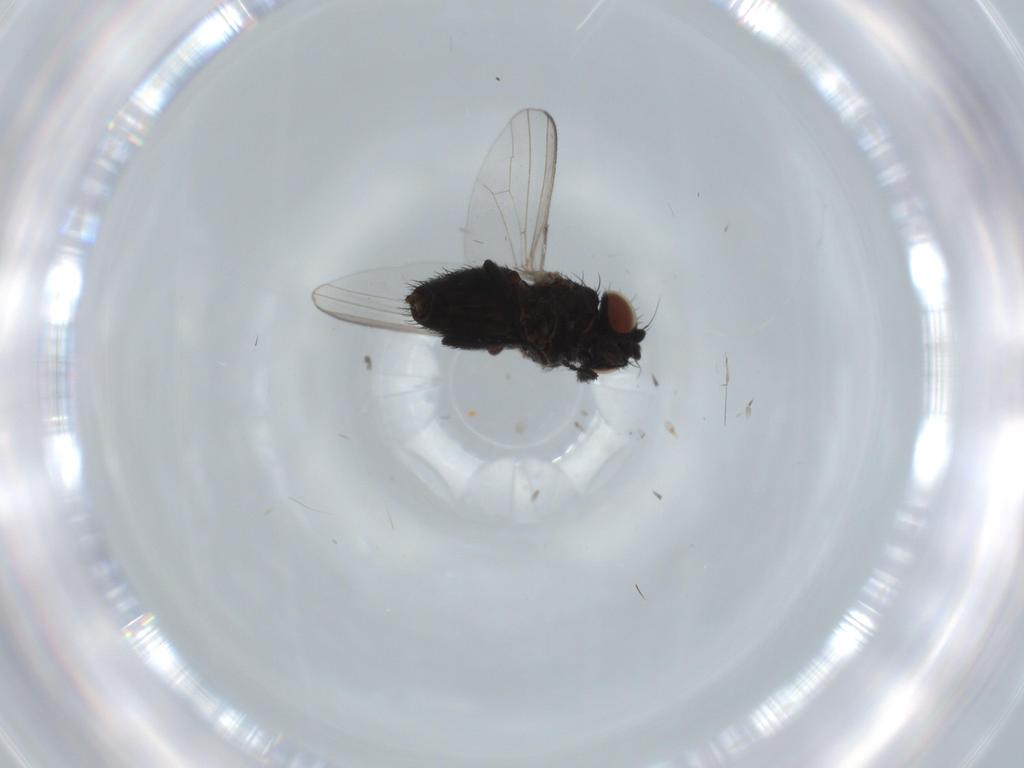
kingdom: Animalia
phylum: Arthropoda
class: Insecta
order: Diptera
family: Milichiidae
